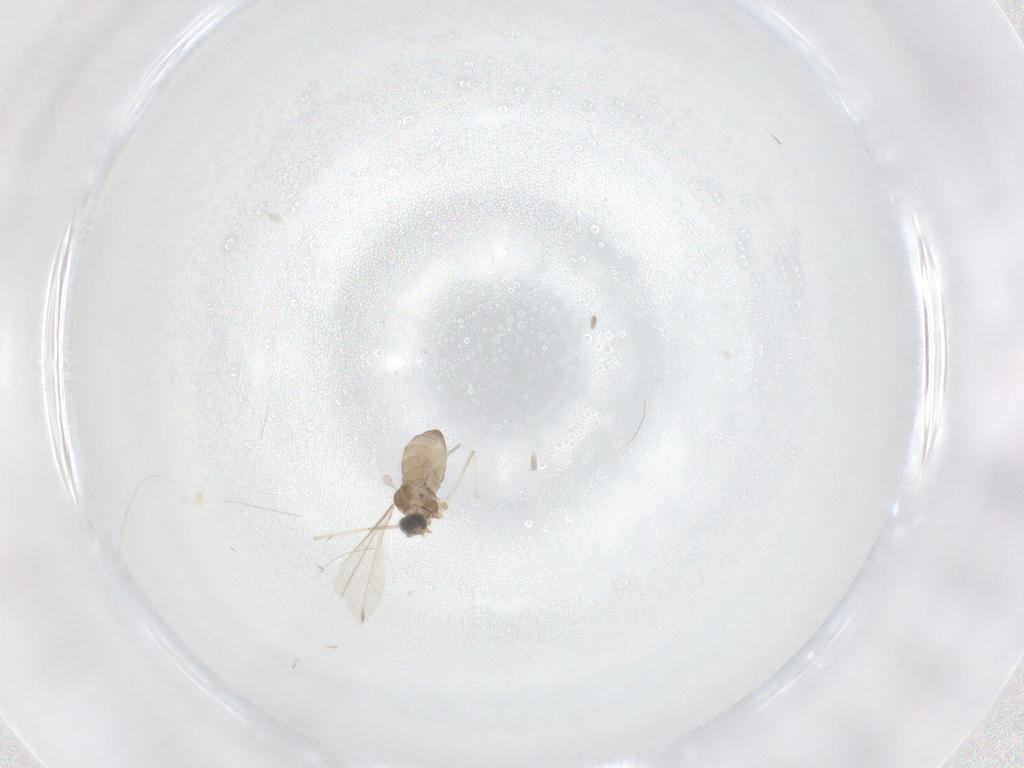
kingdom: Animalia
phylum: Arthropoda
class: Insecta
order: Diptera
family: Cecidomyiidae
